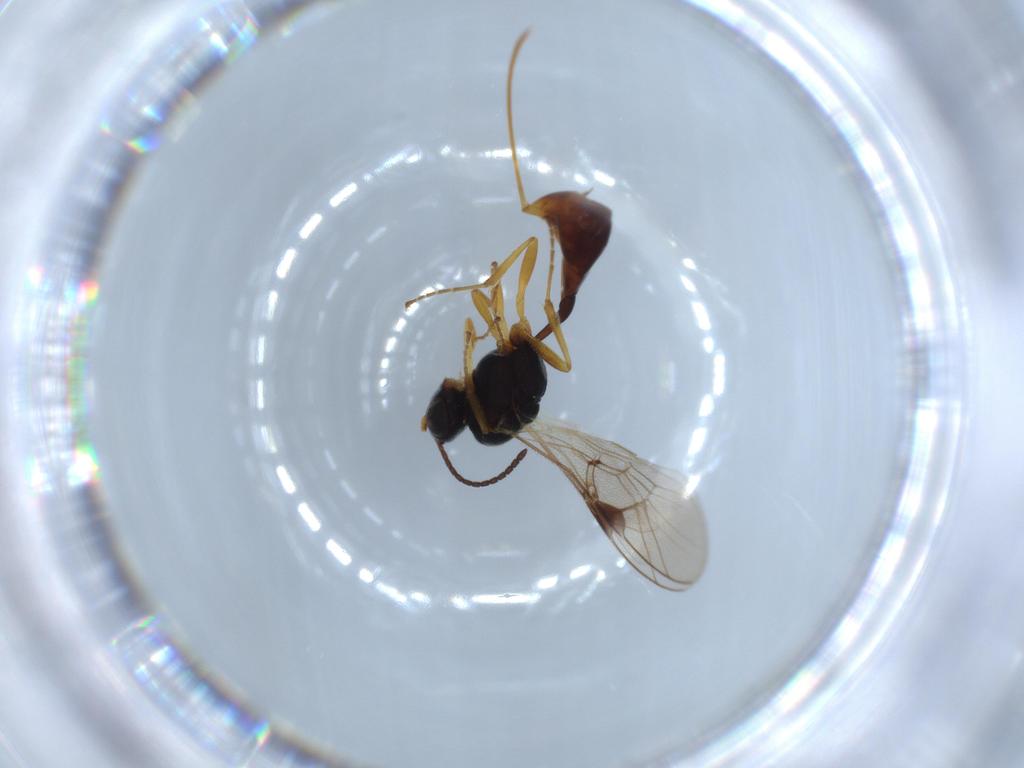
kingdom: Animalia
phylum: Arthropoda
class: Insecta
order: Hymenoptera
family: Ichneumonidae
